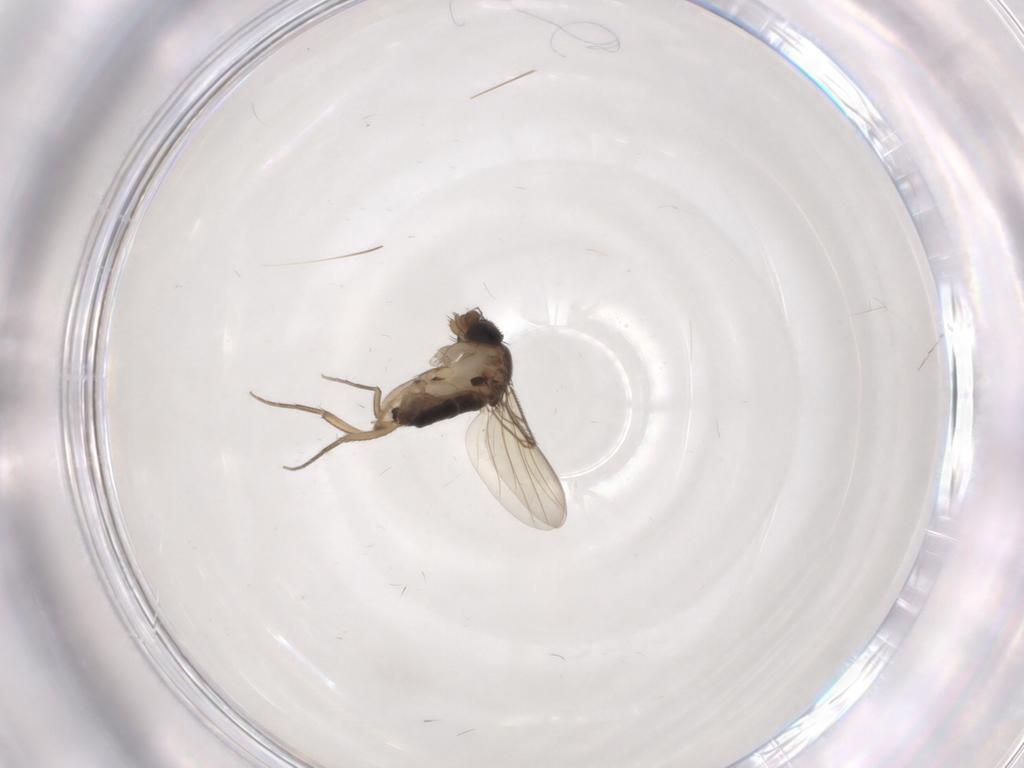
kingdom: Animalia
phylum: Arthropoda
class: Insecta
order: Diptera
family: Phoridae
